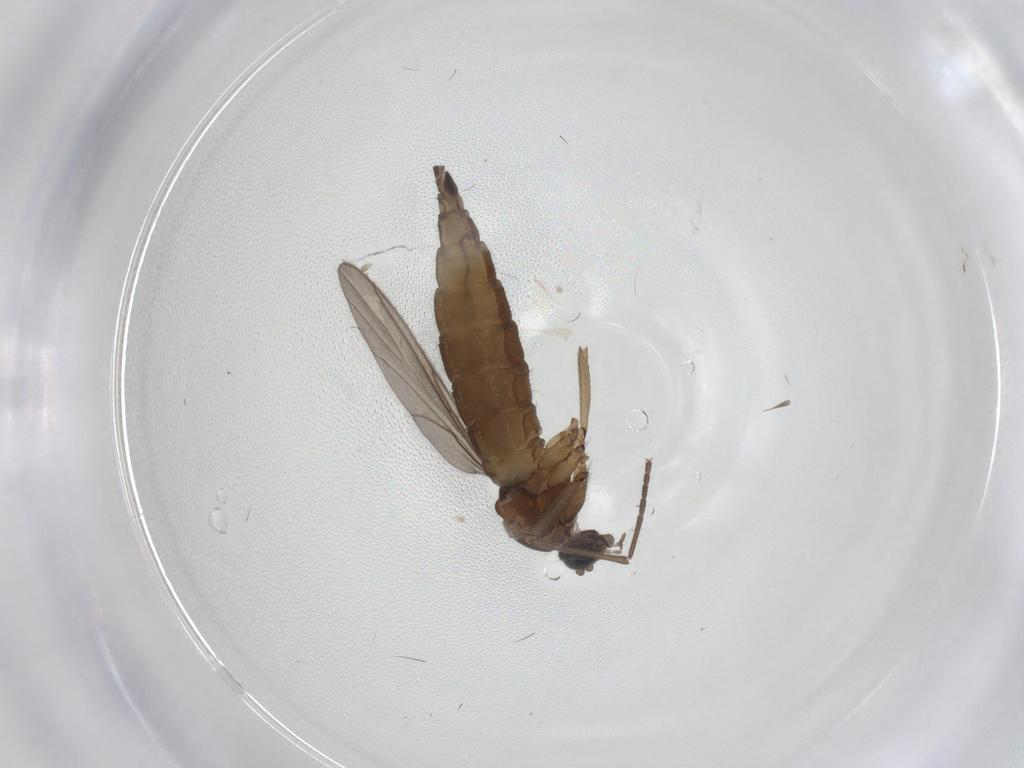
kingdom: Animalia
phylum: Arthropoda
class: Insecta
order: Diptera
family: Sciaridae
